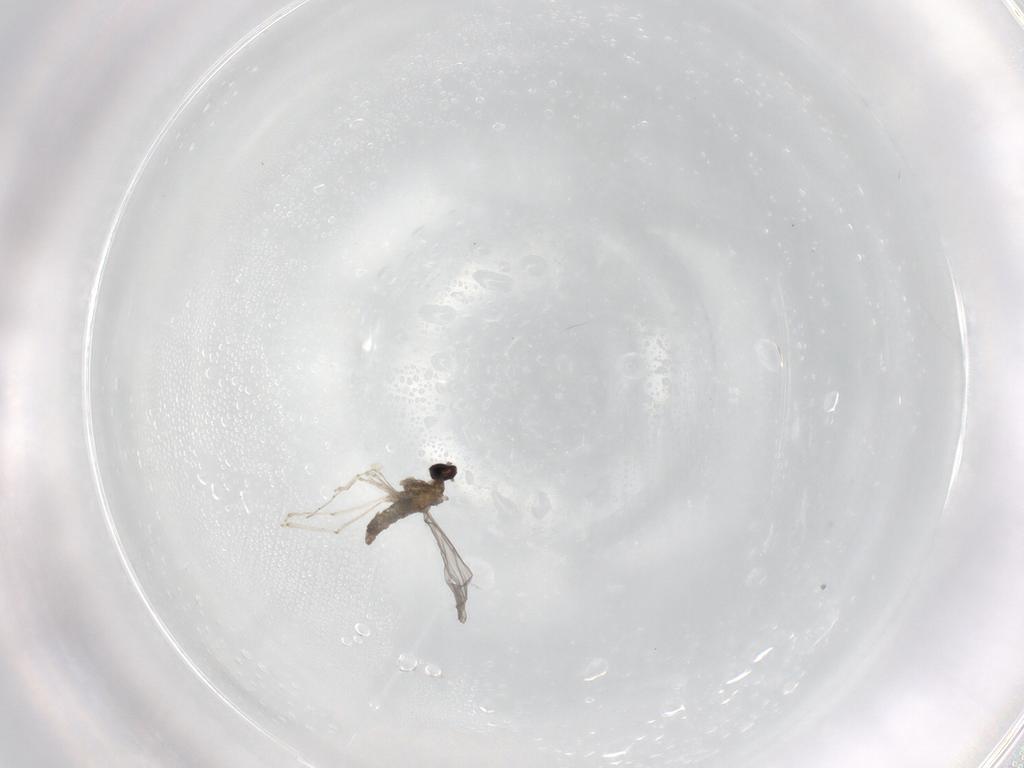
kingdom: Animalia
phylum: Arthropoda
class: Insecta
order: Diptera
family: Cecidomyiidae
